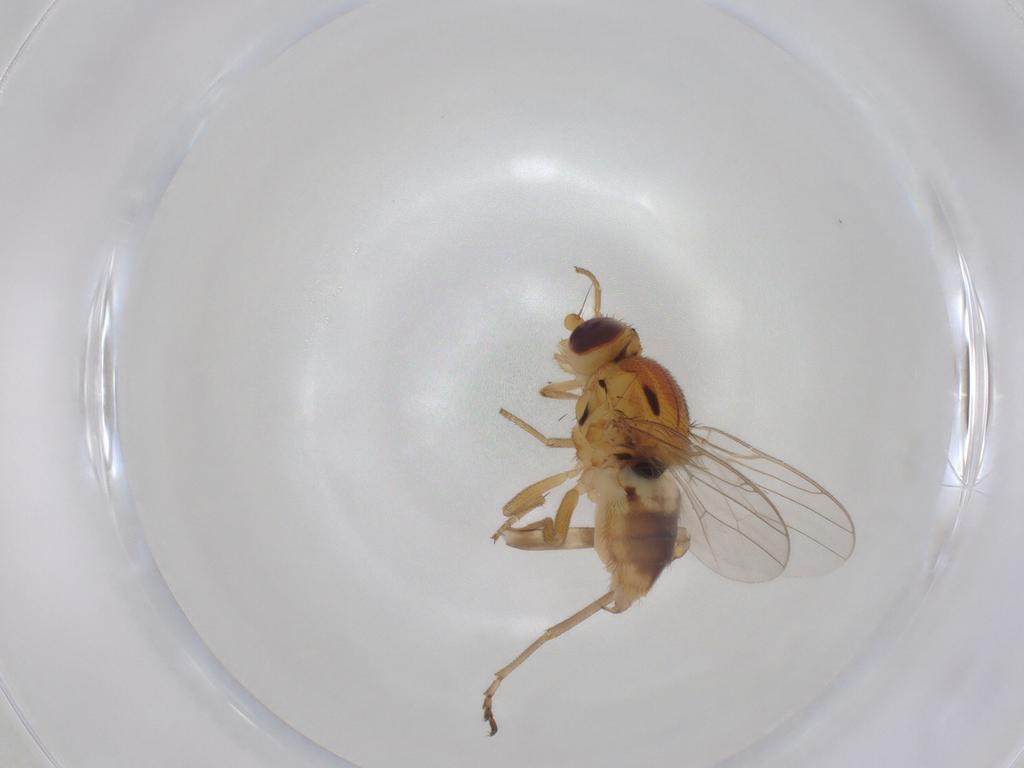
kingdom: Animalia
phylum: Arthropoda
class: Insecta
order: Diptera
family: Chloropidae
